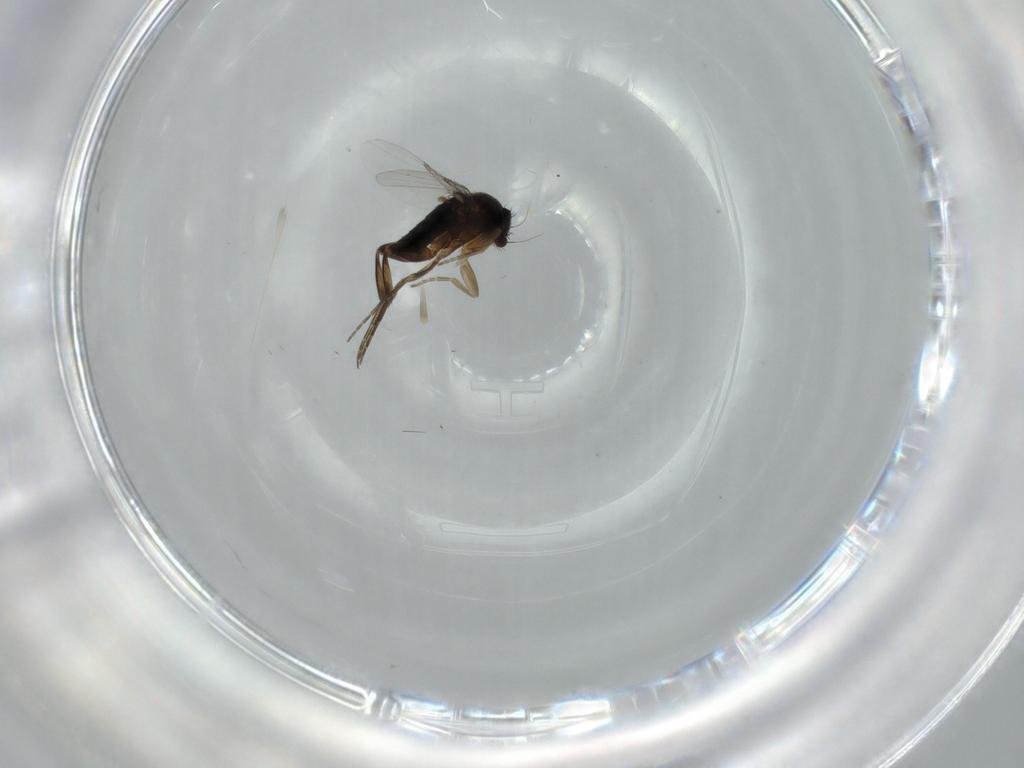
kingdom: Animalia
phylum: Arthropoda
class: Insecta
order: Diptera
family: Phoridae
